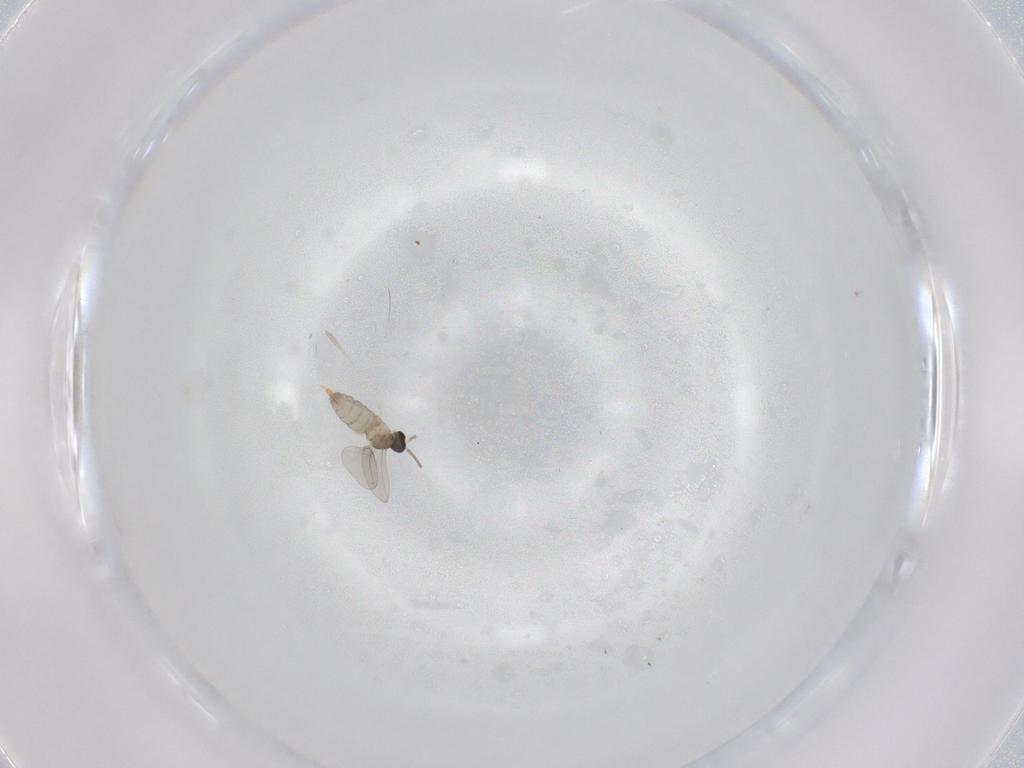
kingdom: Animalia
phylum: Arthropoda
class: Insecta
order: Diptera
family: Cecidomyiidae
